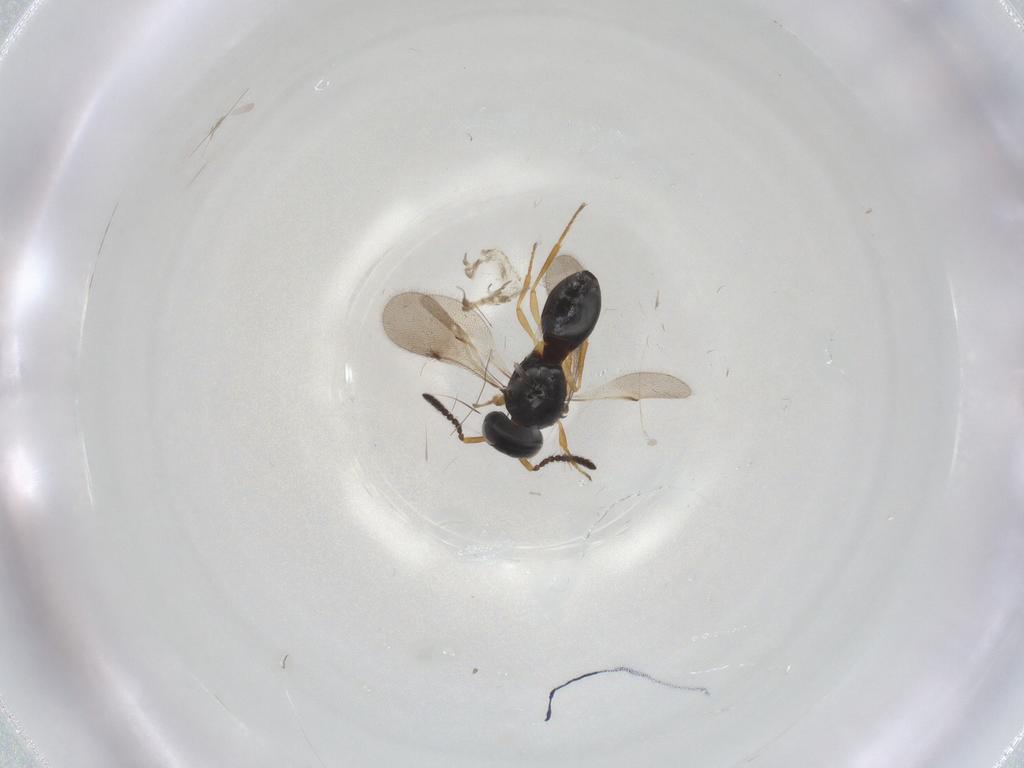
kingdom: Animalia
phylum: Arthropoda
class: Insecta
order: Hymenoptera
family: Scelionidae
